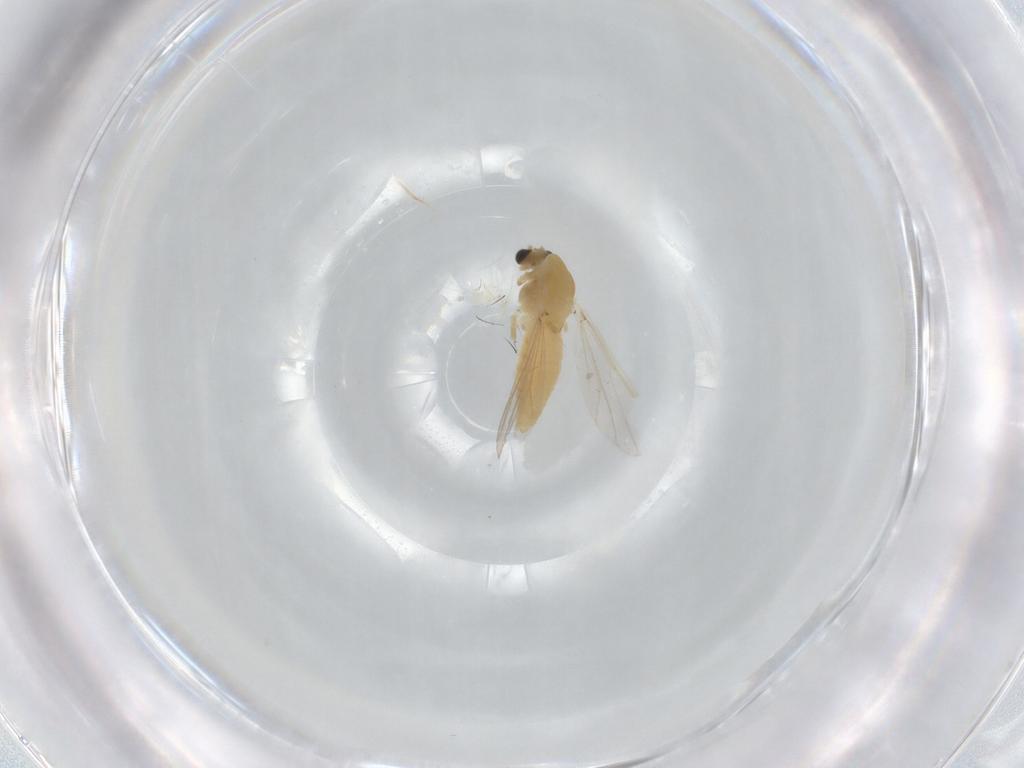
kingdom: Animalia
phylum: Arthropoda
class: Insecta
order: Diptera
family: Chironomidae
